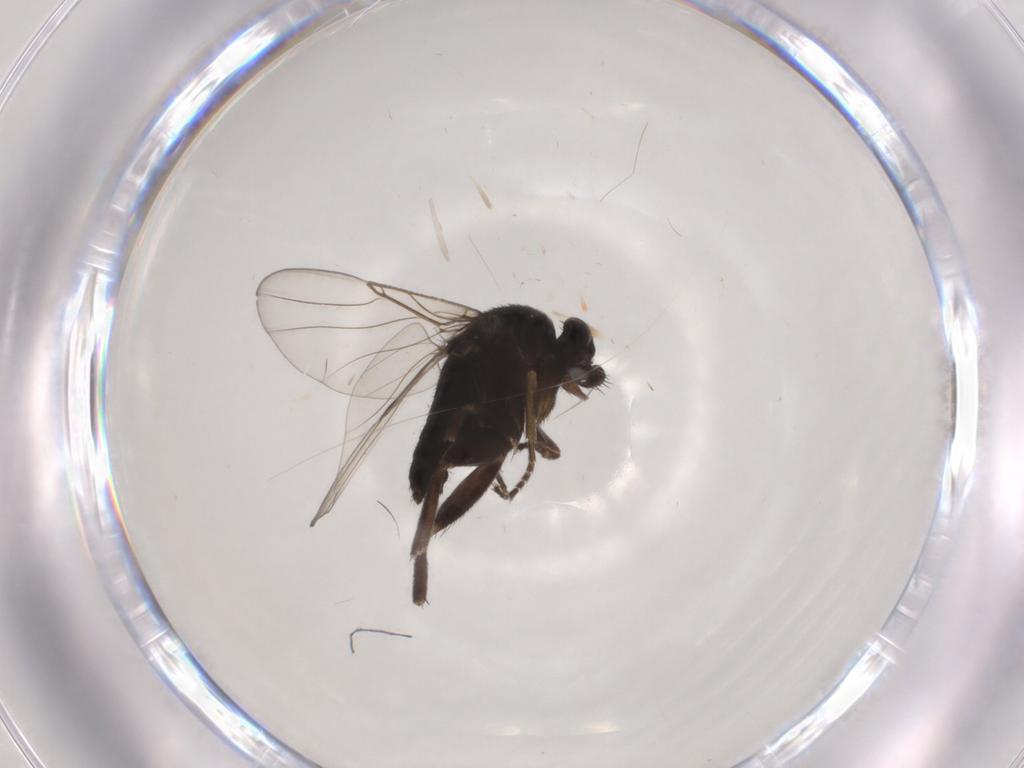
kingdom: Animalia
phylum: Arthropoda
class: Insecta
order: Diptera
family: Phoridae
